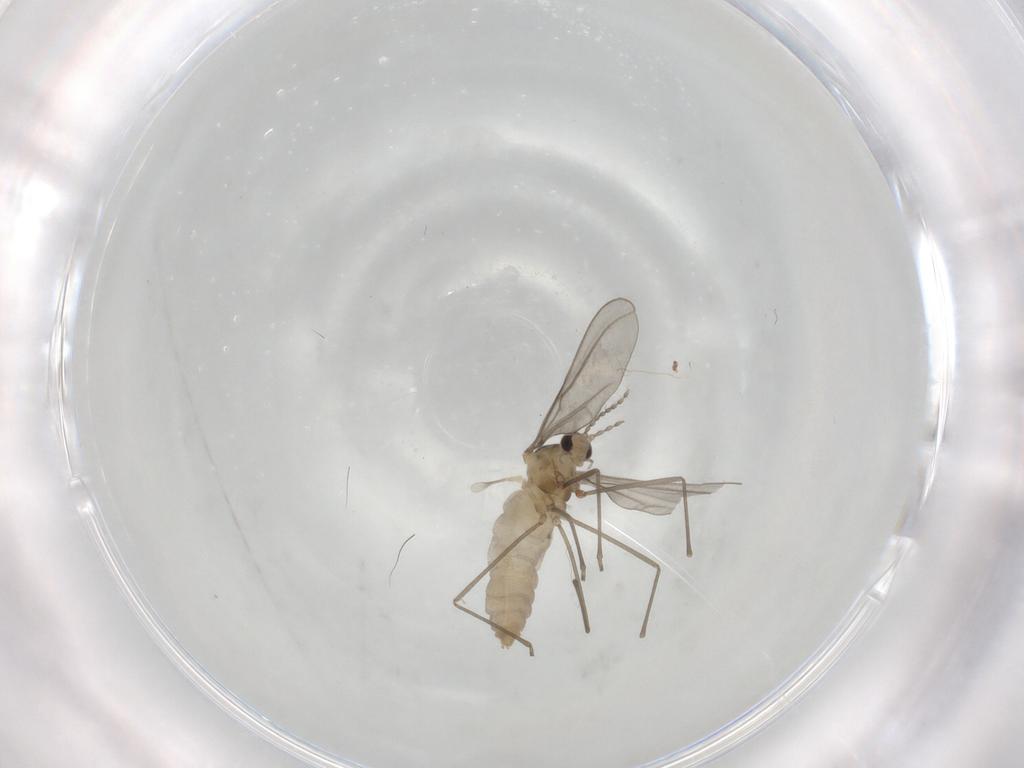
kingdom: Animalia
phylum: Arthropoda
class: Insecta
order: Diptera
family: Cecidomyiidae
